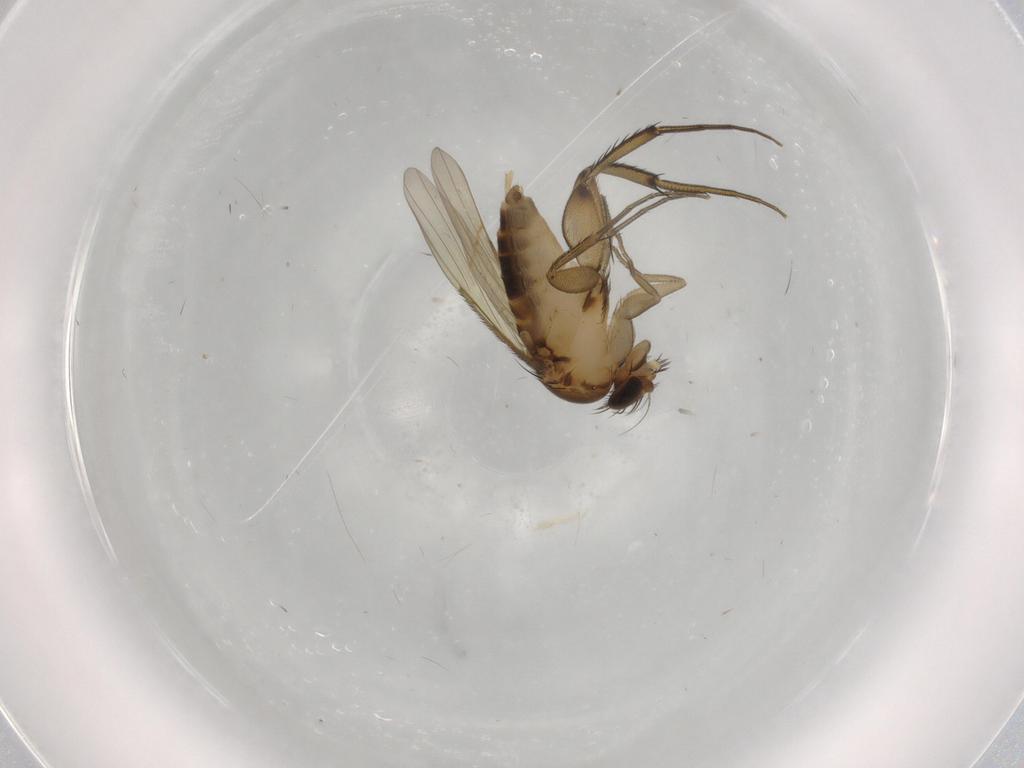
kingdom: Animalia
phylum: Arthropoda
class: Insecta
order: Diptera
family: Phoridae
